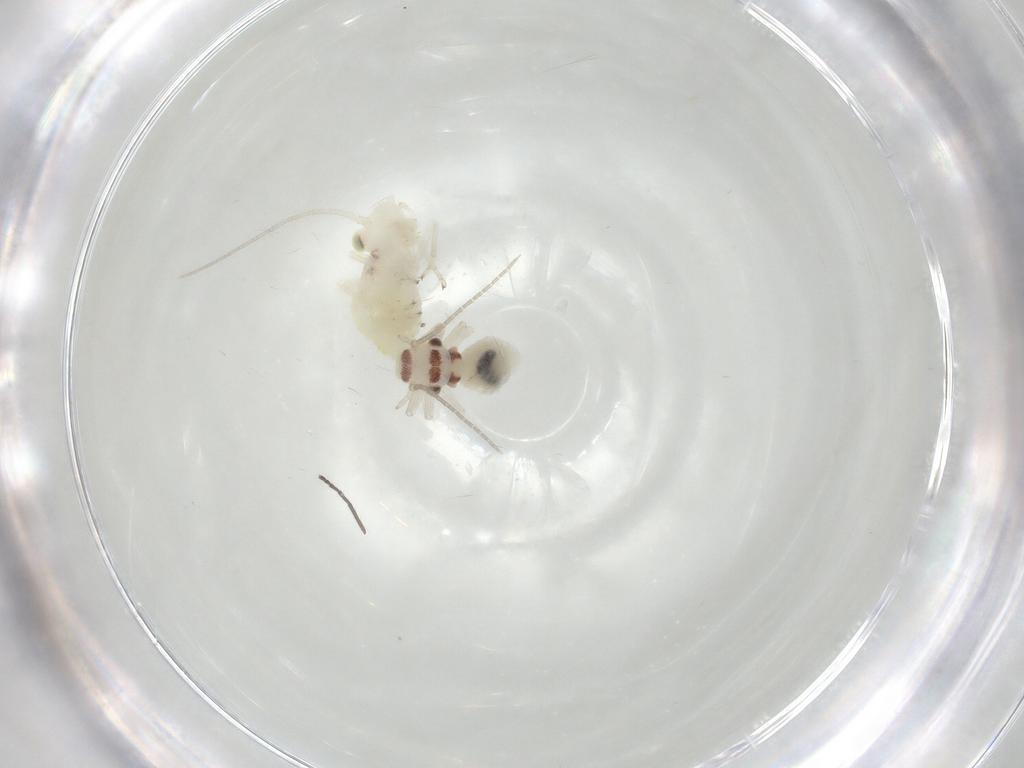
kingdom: Animalia
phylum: Arthropoda
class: Insecta
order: Psocodea
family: Amphipsocidae
